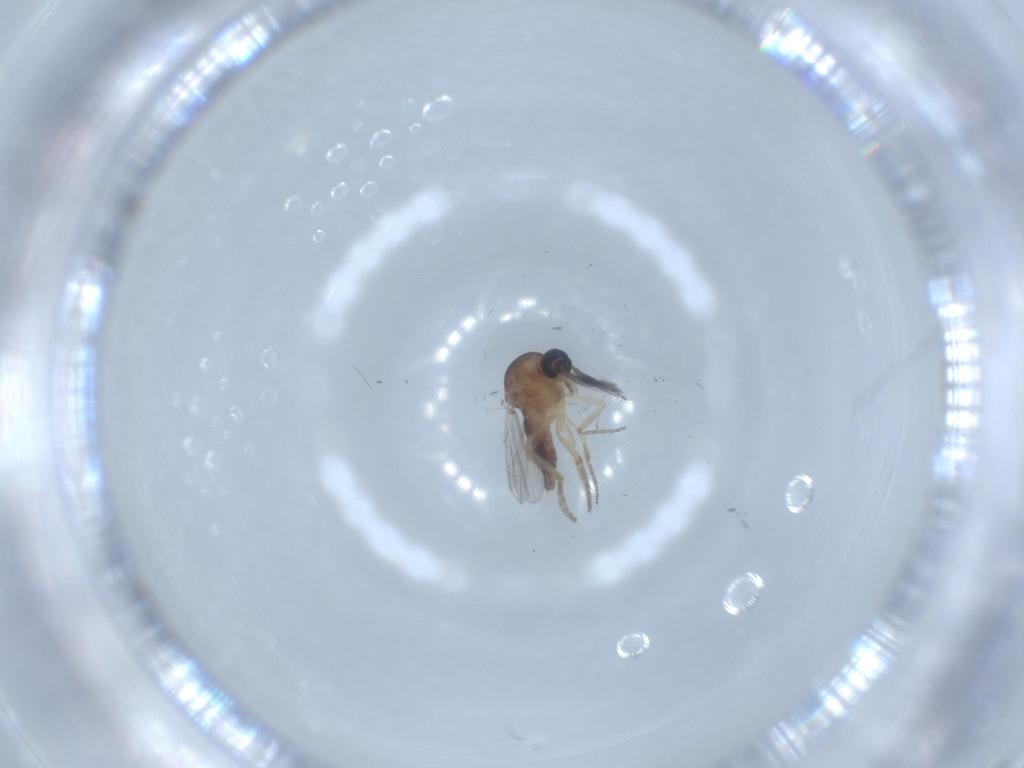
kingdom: Animalia
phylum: Arthropoda
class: Insecta
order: Diptera
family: Ceratopogonidae
